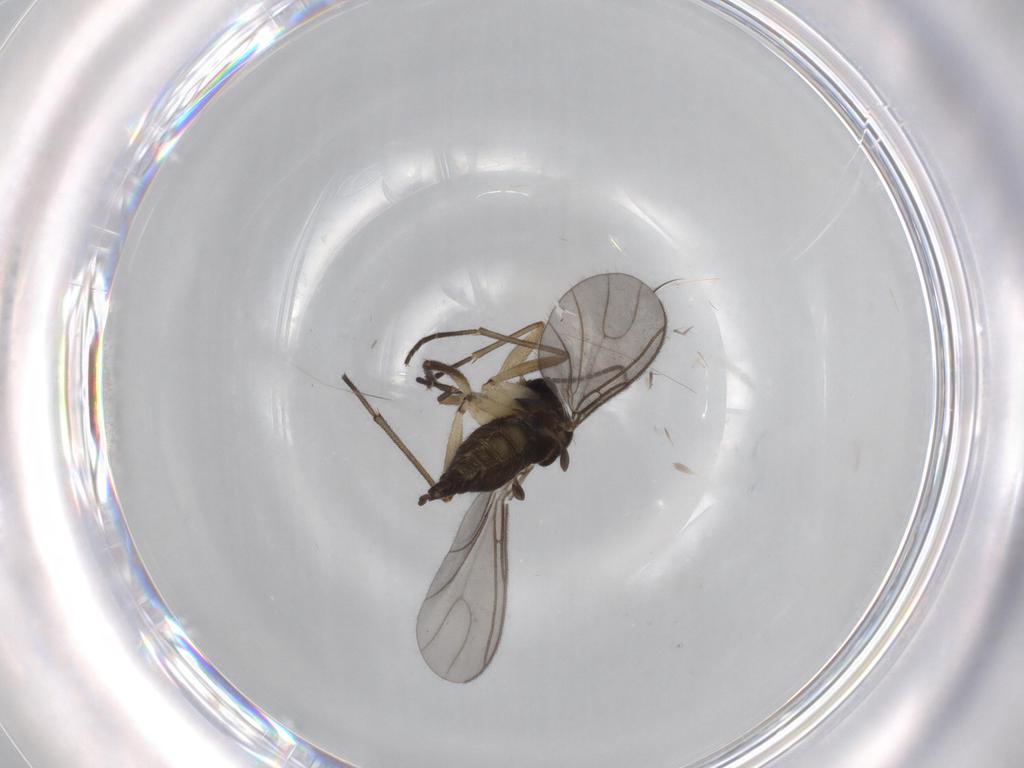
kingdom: Animalia
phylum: Arthropoda
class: Insecta
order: Diptera
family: Sciaridae
